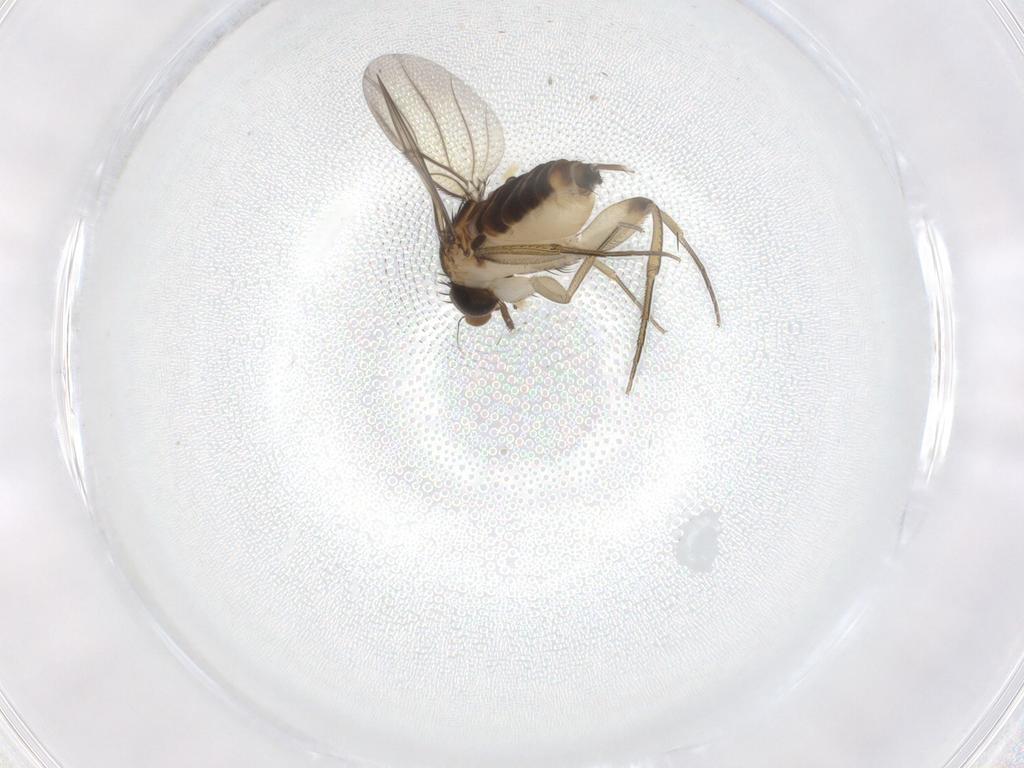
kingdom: Animalia
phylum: Arthropoda
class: Insecta
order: Diptera
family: Phoridae
